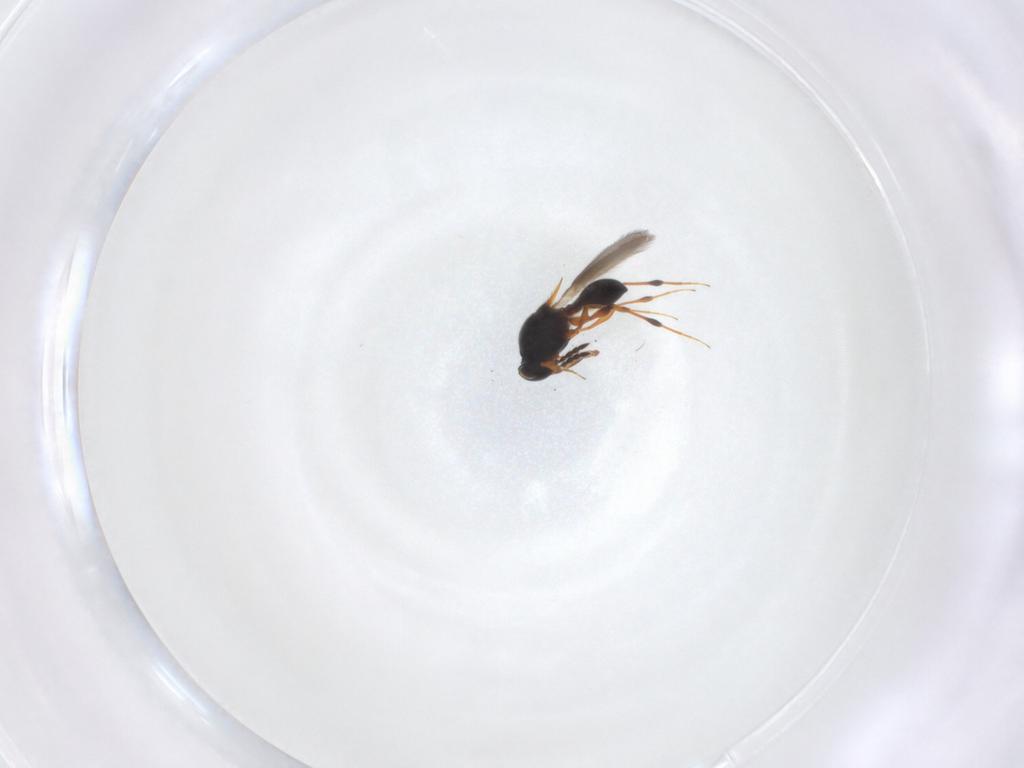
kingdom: Animalia
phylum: Arthropoda
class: Insecta
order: Hymenoptera
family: Platygastridae
